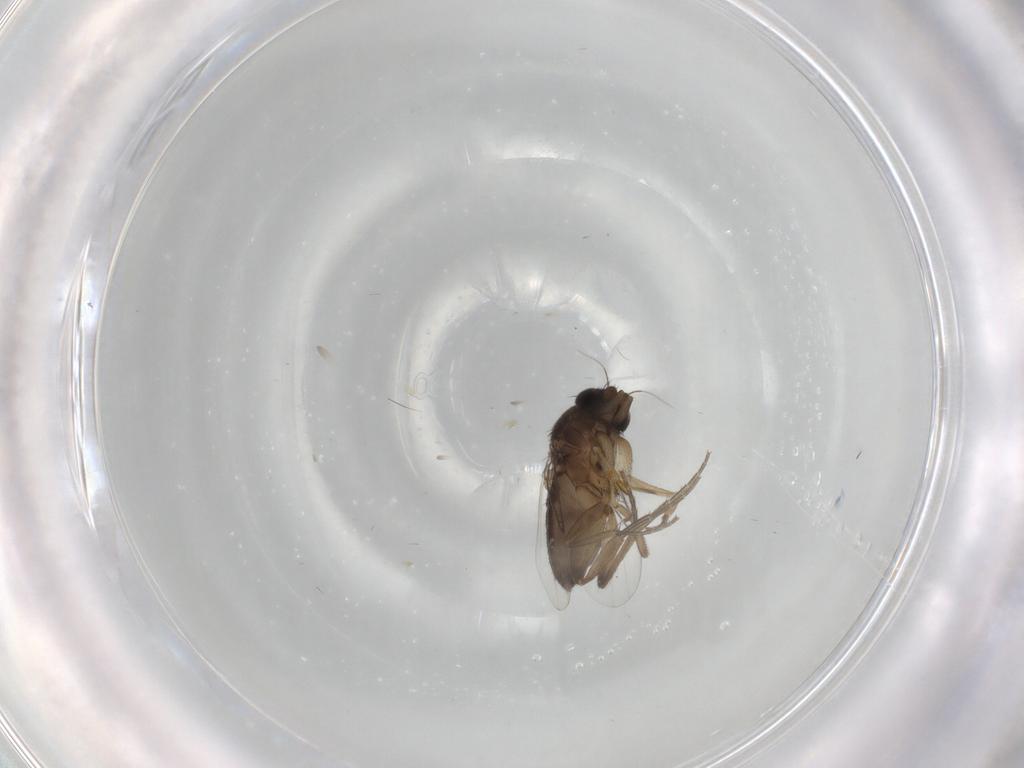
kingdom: Animalia
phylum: Arthropoda
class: Insecta
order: Diptera
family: Phoridae
